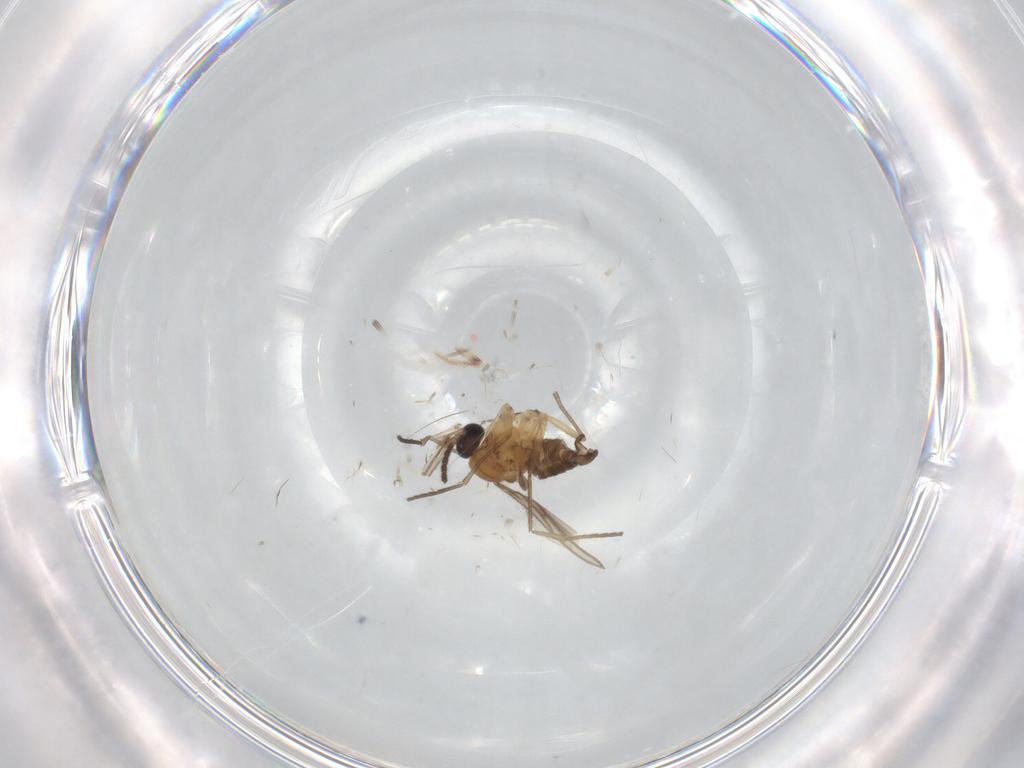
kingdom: Animalia
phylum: Arthropoda
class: Insecta
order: Diptera
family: Sciaridae
